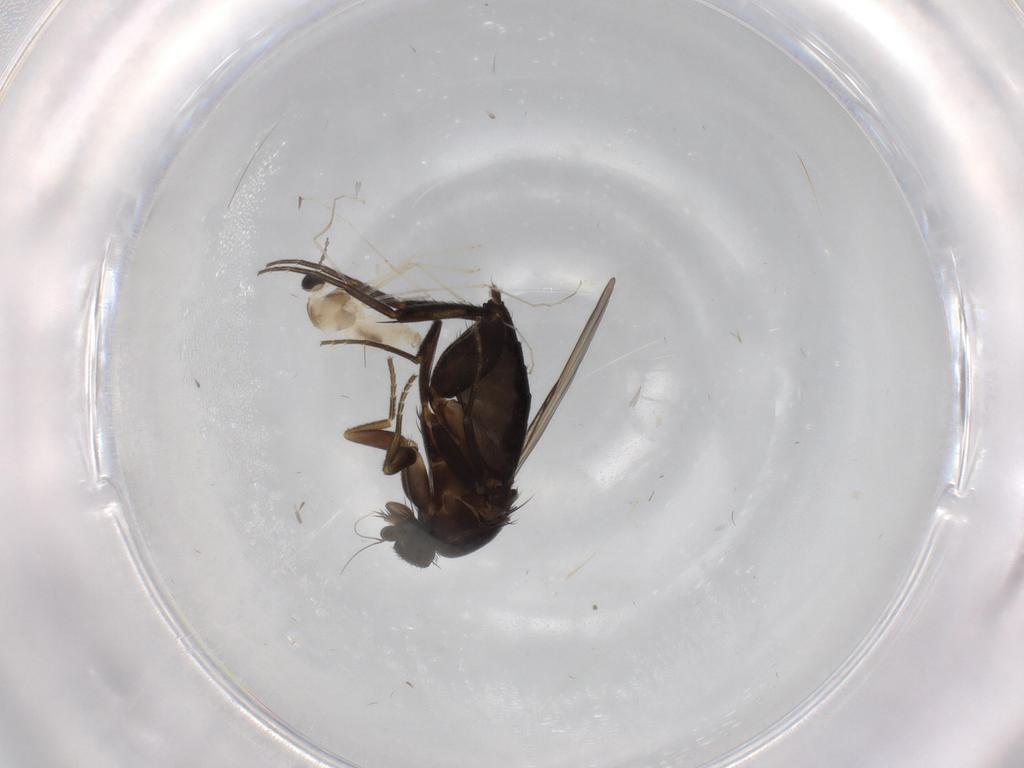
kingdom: Animalia
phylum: Arthropoda
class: Insecta
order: Diptera
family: Phoridae
